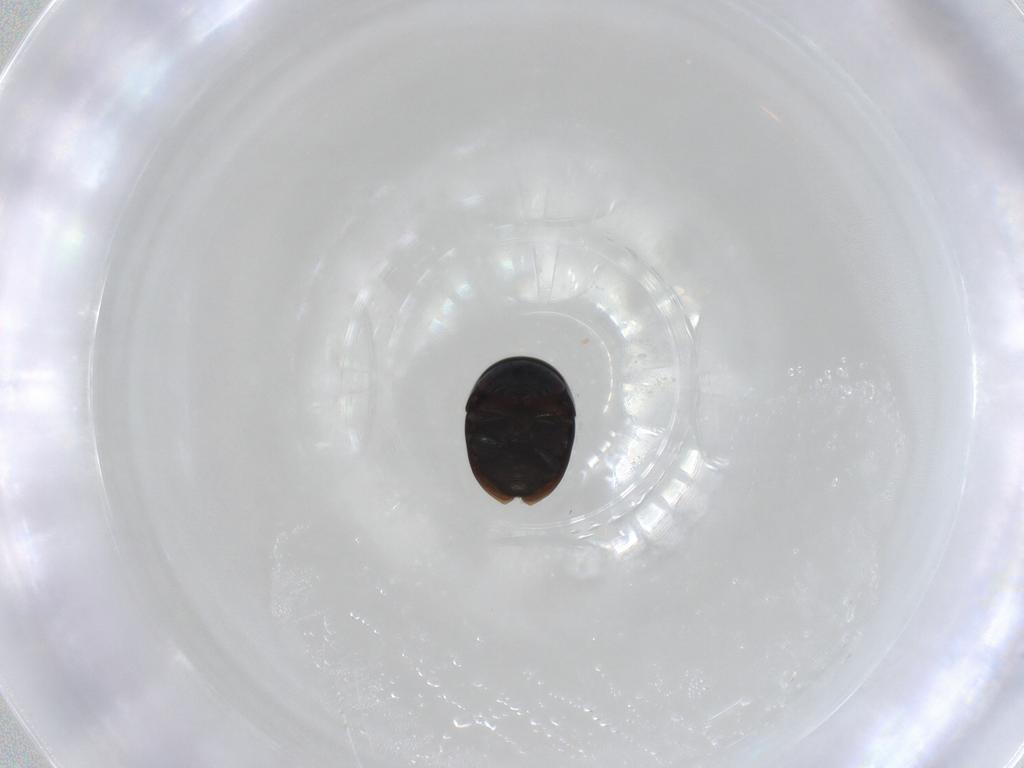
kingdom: Animalia
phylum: Arthropoda
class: Insecta
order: Coleoptera
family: Cybocephalidae
